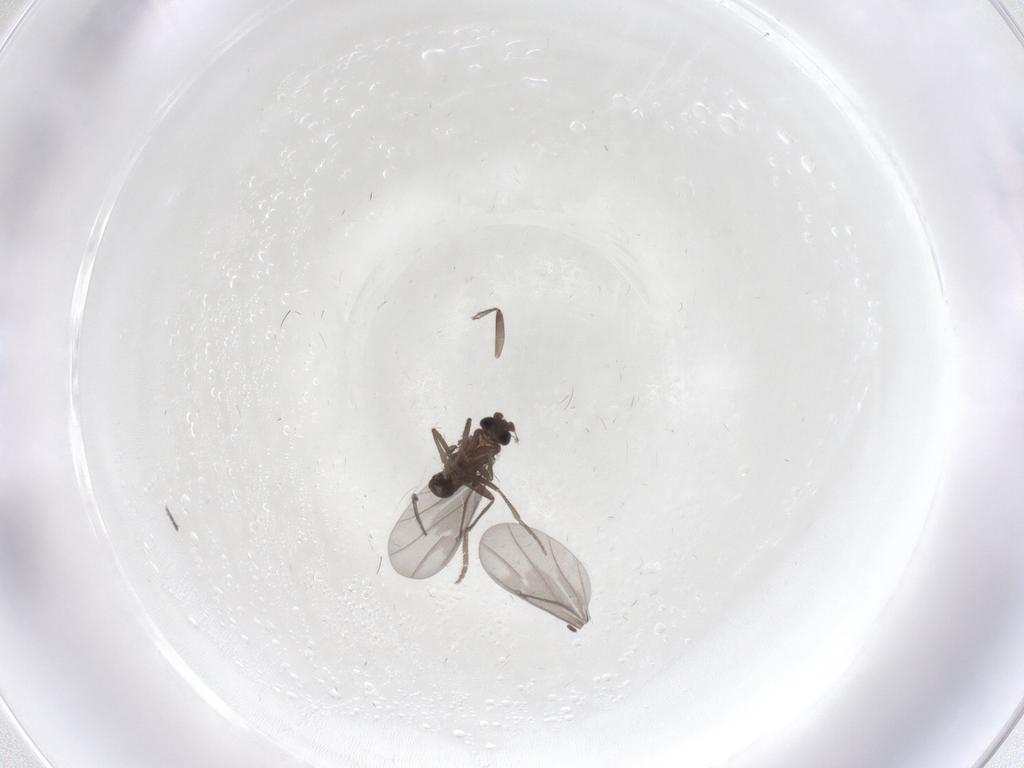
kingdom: Animalia
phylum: Arthropoda
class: Insecta
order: Diptera
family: Phoridae
